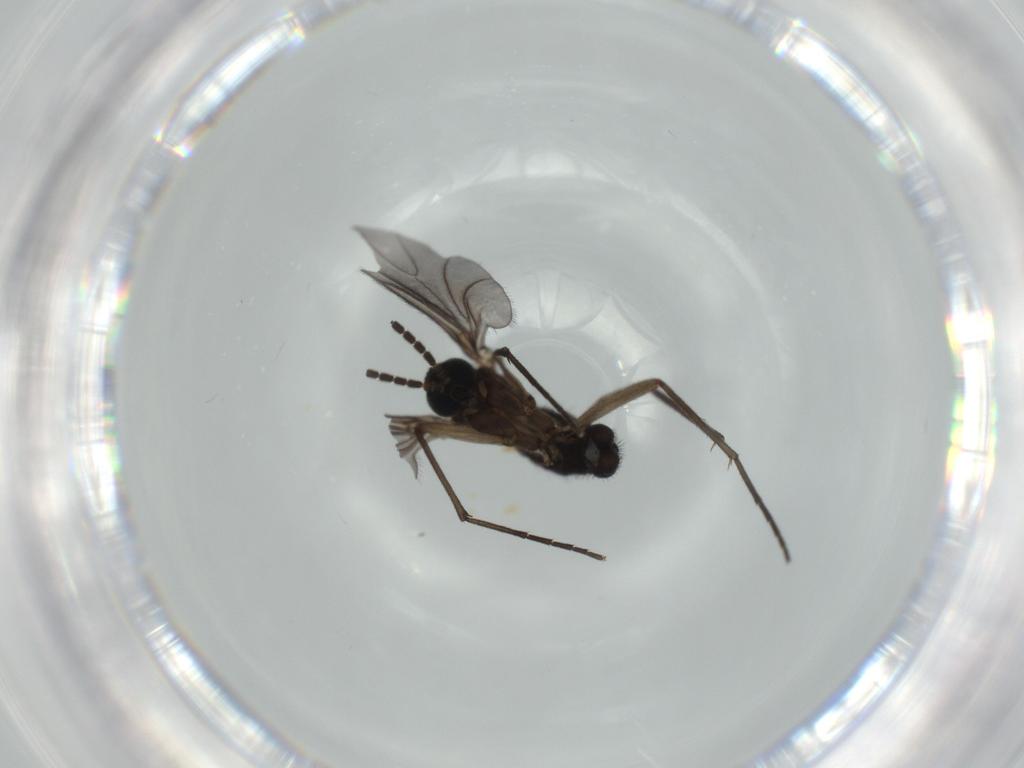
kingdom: Animalia
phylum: Arthropoda
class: Insecta
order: Diptera
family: Sciaridae
